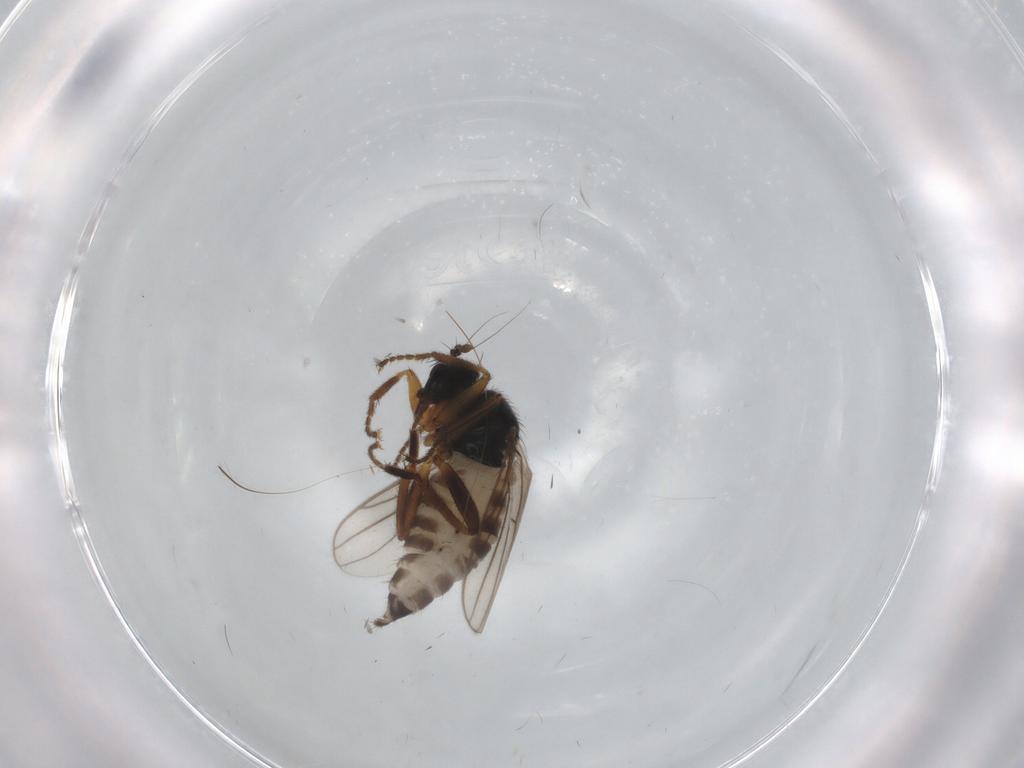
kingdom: Animalia
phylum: Arthropoda
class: Insecta
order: Diptera
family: Hybotidae
